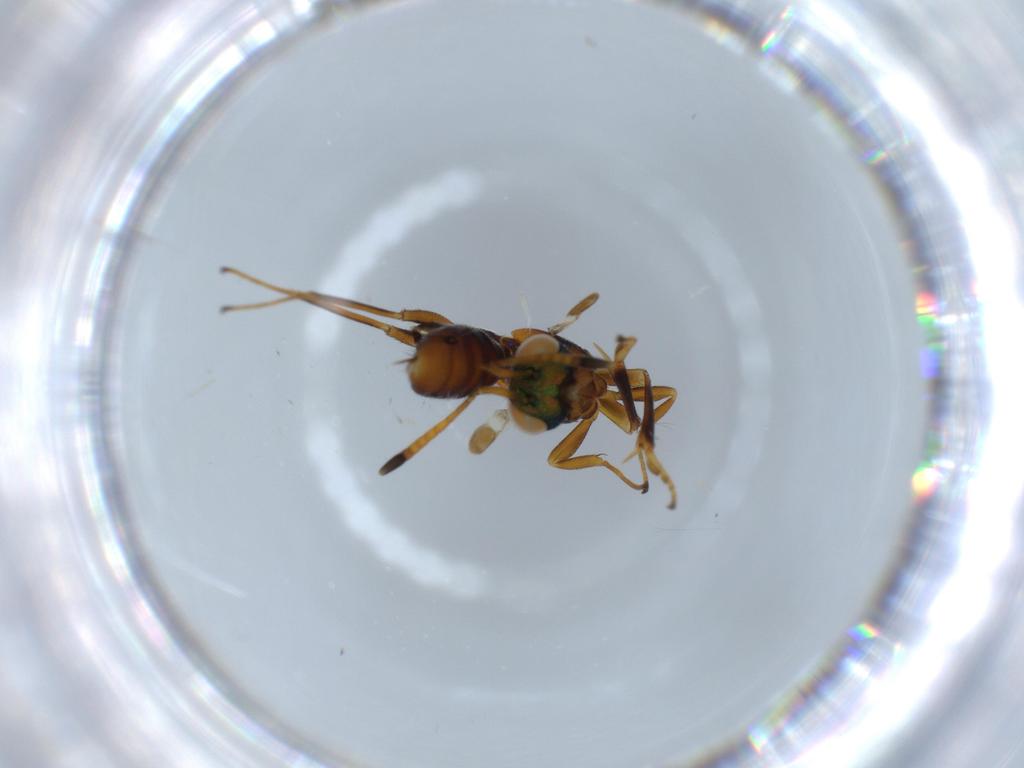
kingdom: Animalia
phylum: Arthropoda
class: Insecta
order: Hymenoptera
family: Eupelmidae
